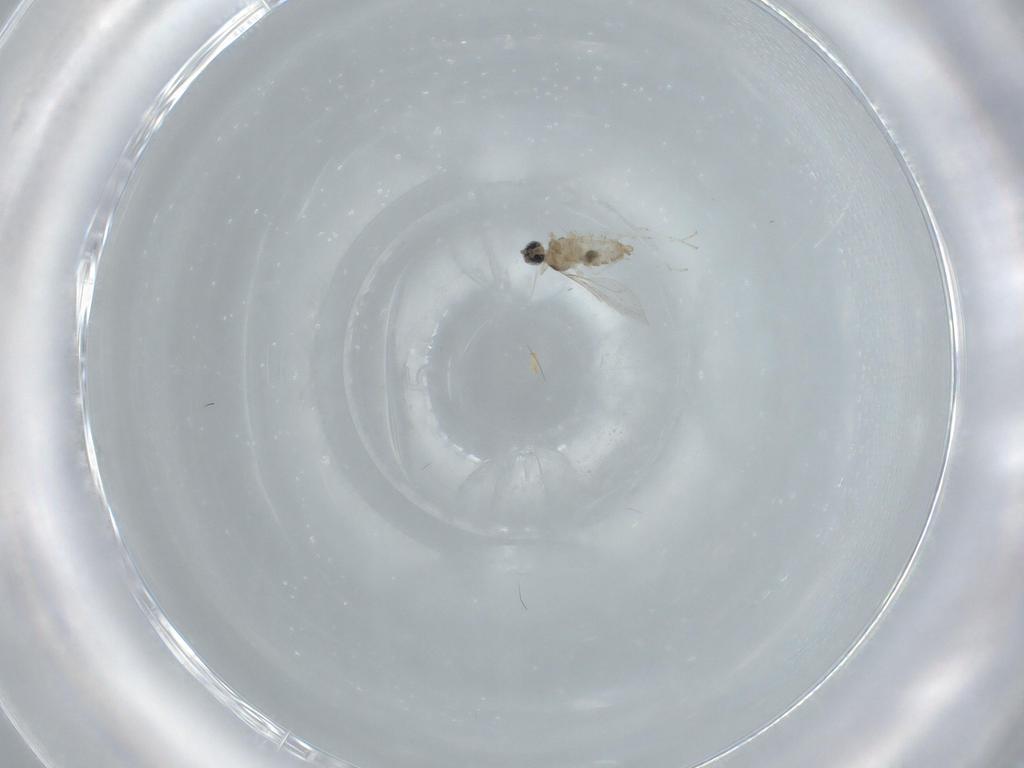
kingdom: Animalia
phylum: Arthropoda
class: Insecta
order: Diptera
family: Cecidomyiidae
